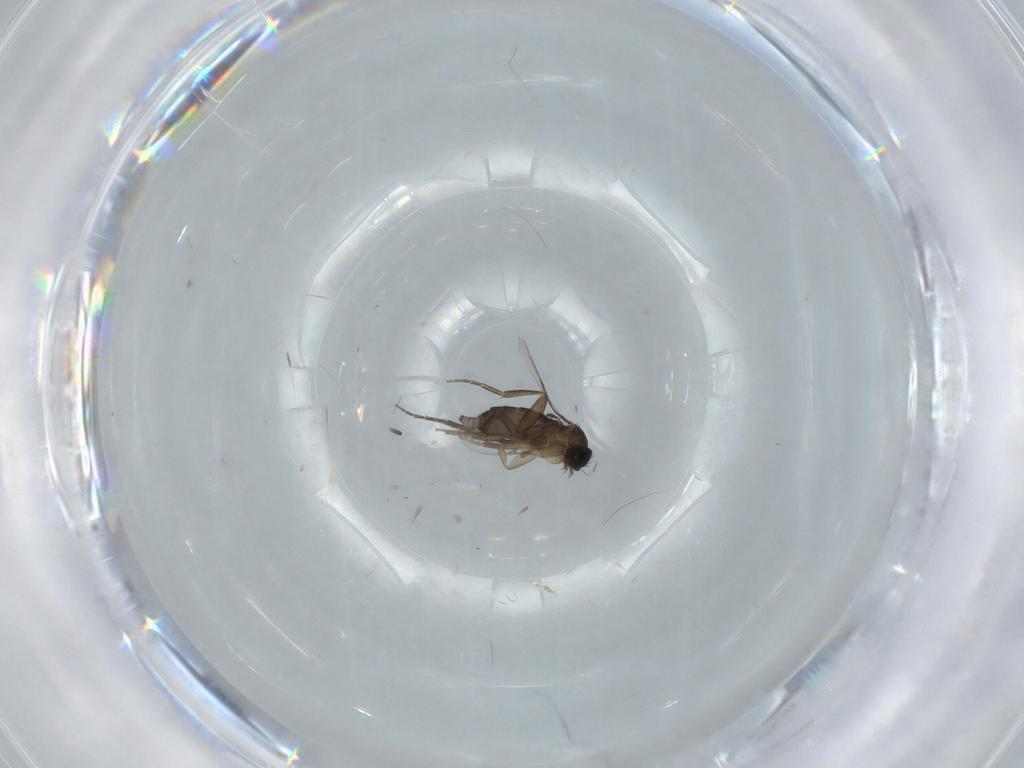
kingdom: Animalia
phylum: Arthropoda
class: Insecta
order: Diptera
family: Phoridae
